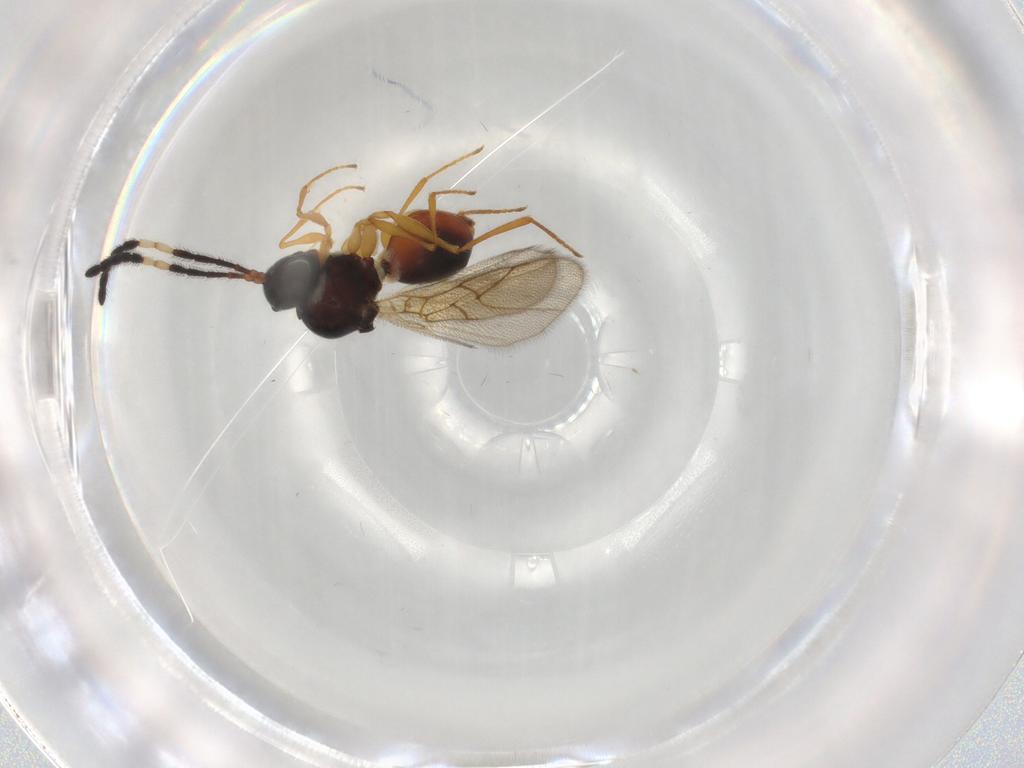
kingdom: Animalia
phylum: Arthropoda
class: Insecta
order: Hymenoptera
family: Figitidae
